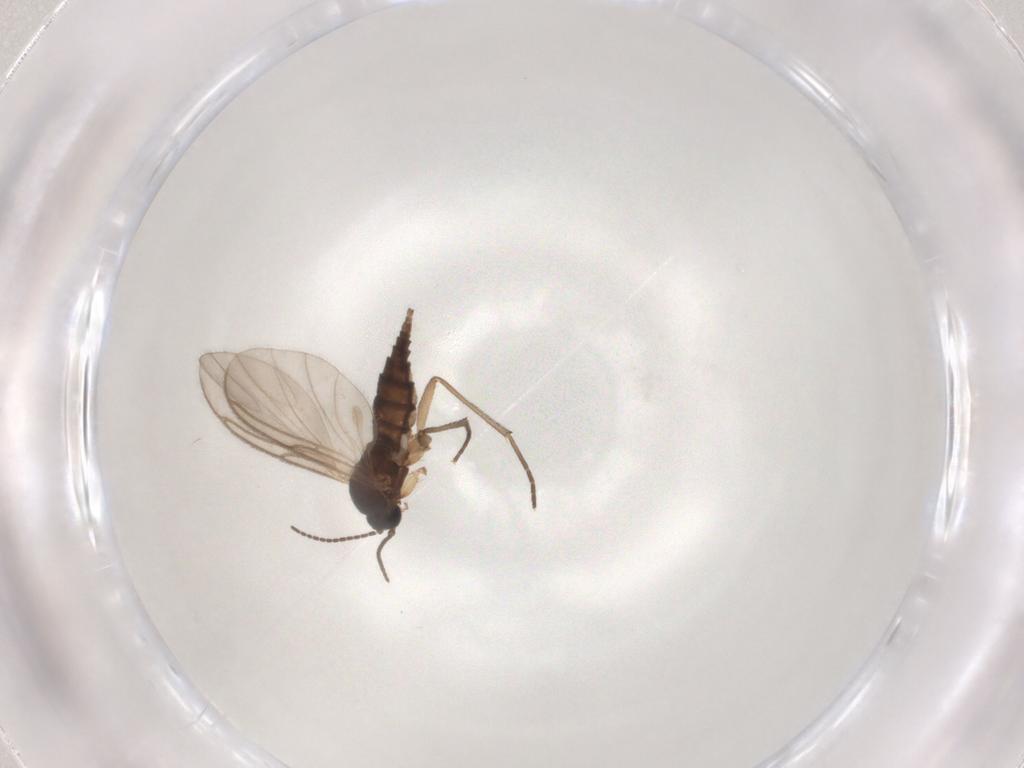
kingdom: Animalia
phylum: Arthropoda
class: Insecta
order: Diptera
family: Sciaridae
